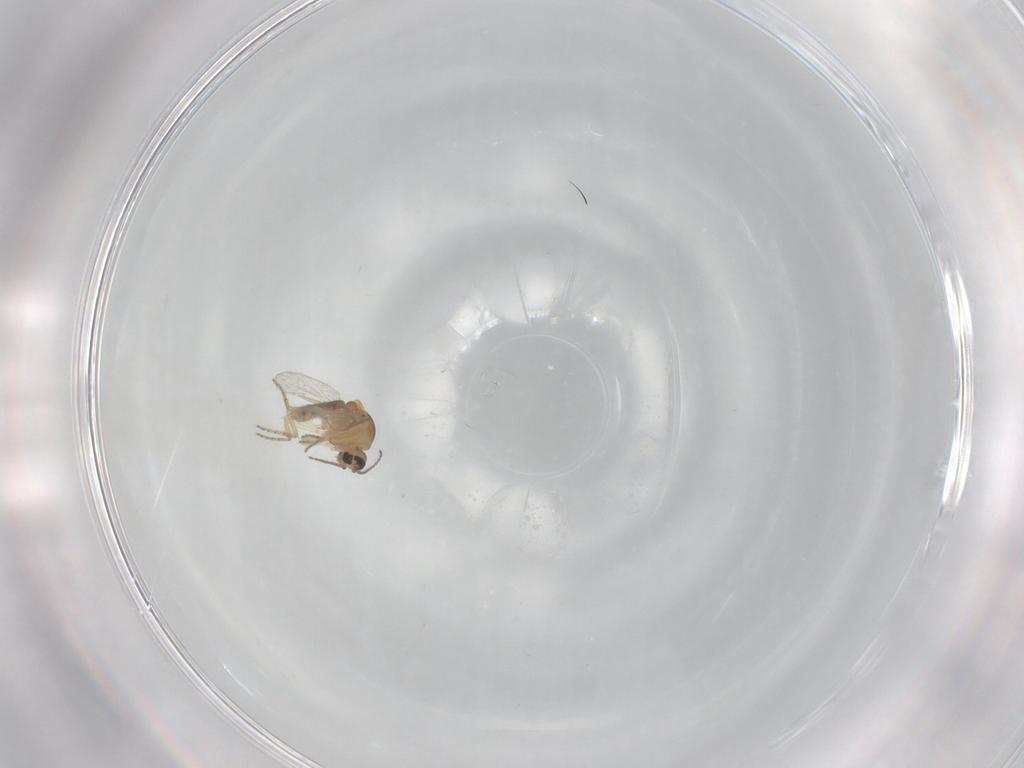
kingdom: Animalia
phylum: Arthropoda
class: Insecta
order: Diptera
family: Ceratopogonidae
